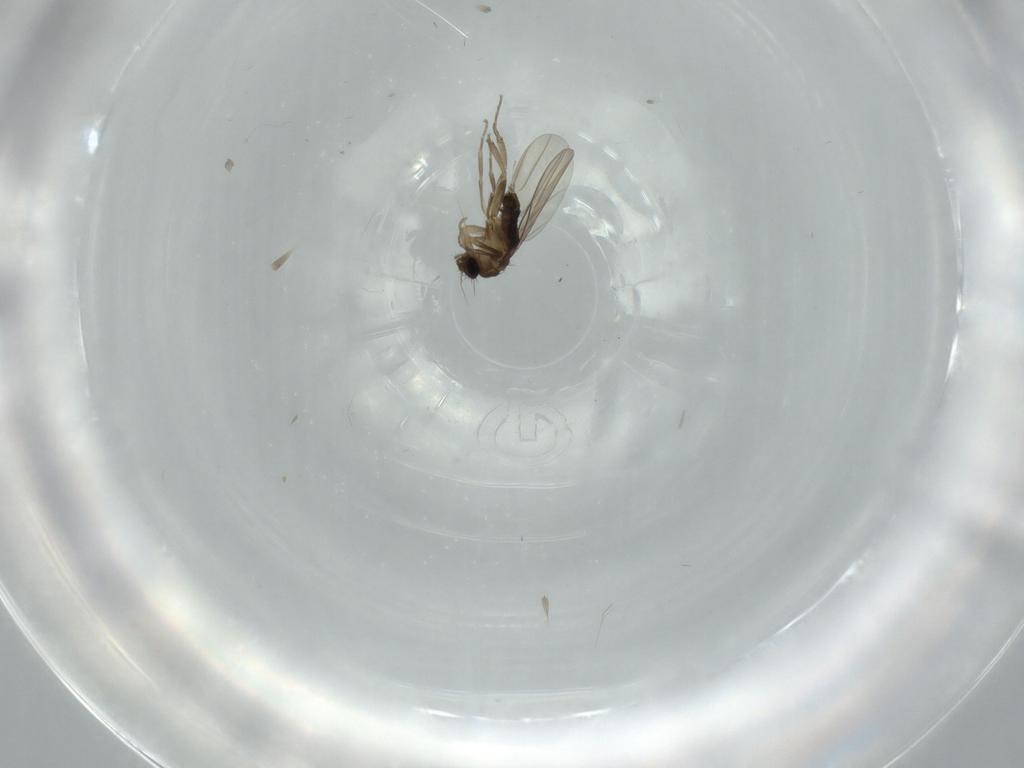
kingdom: Animalia
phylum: Arthropoda
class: Insecta
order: Diptera
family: Phoridae
